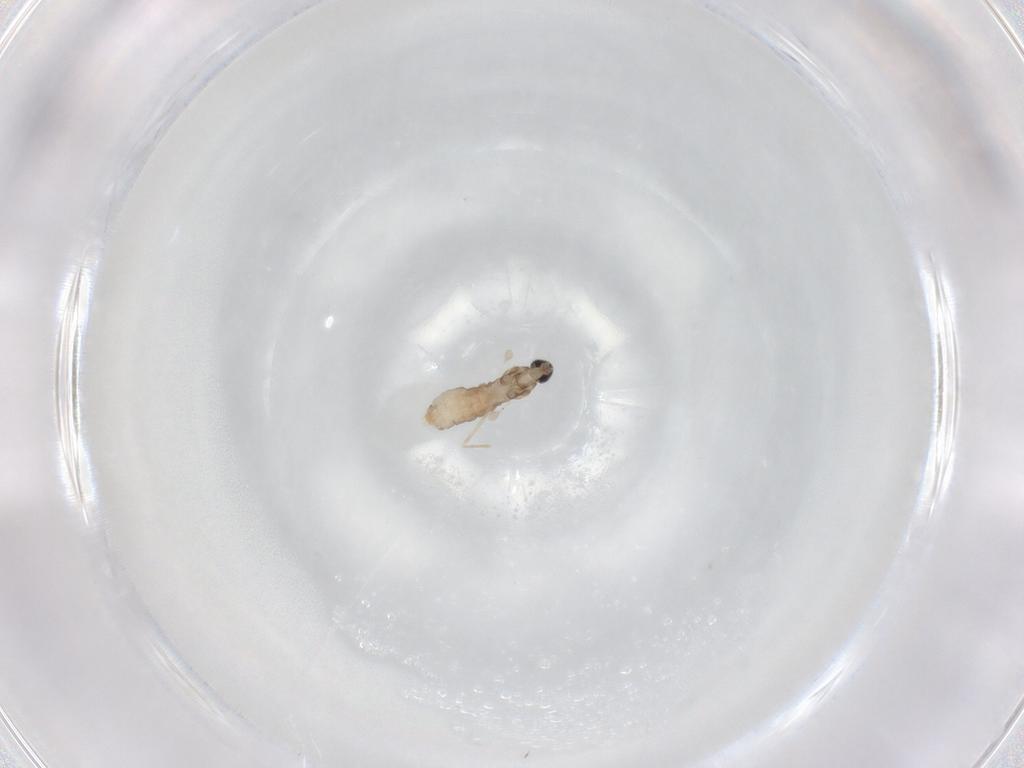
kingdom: Animalia
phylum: Arthropoda
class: Insecta
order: Diptera
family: Cecidomyiidae
